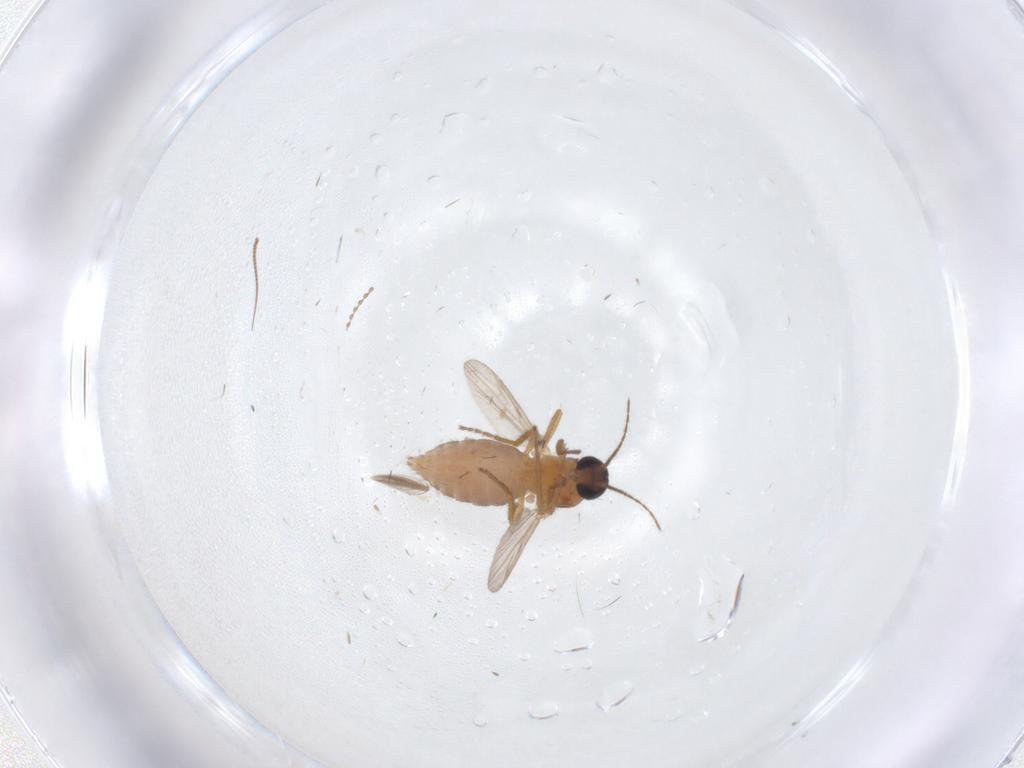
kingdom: Animalia
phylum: Arthropoda
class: Insecta
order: Diptera
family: Ceratopogonidae
